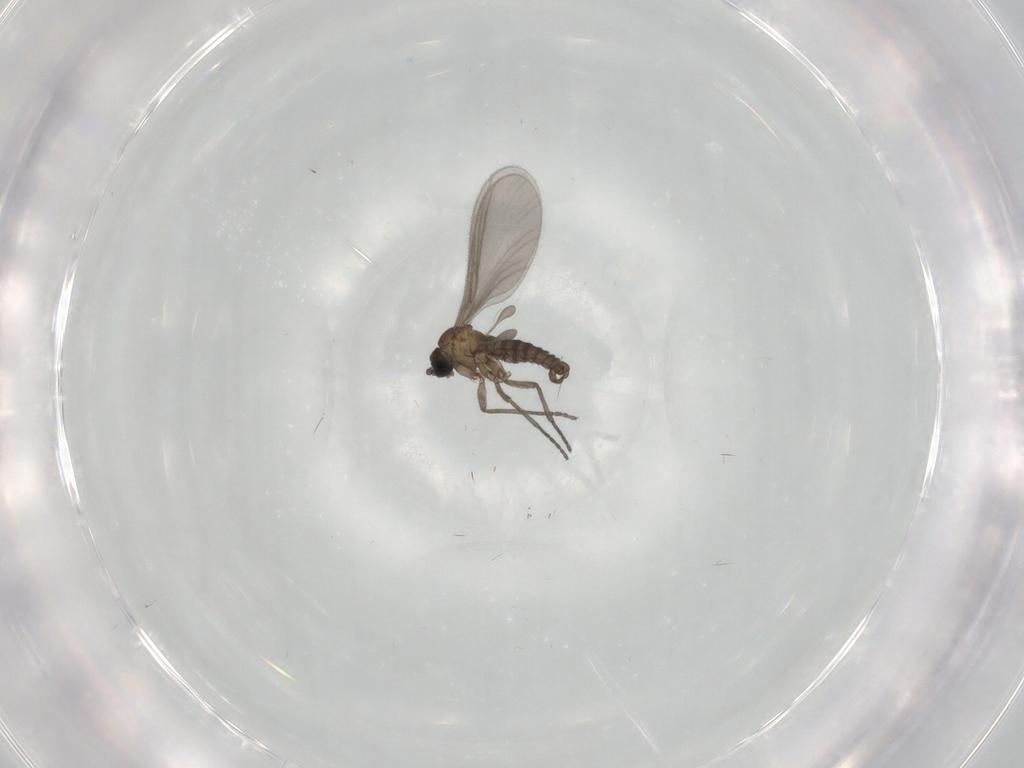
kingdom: Animalia
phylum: Arthropoda
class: Insecta
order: Diptera
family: Sciaridae
